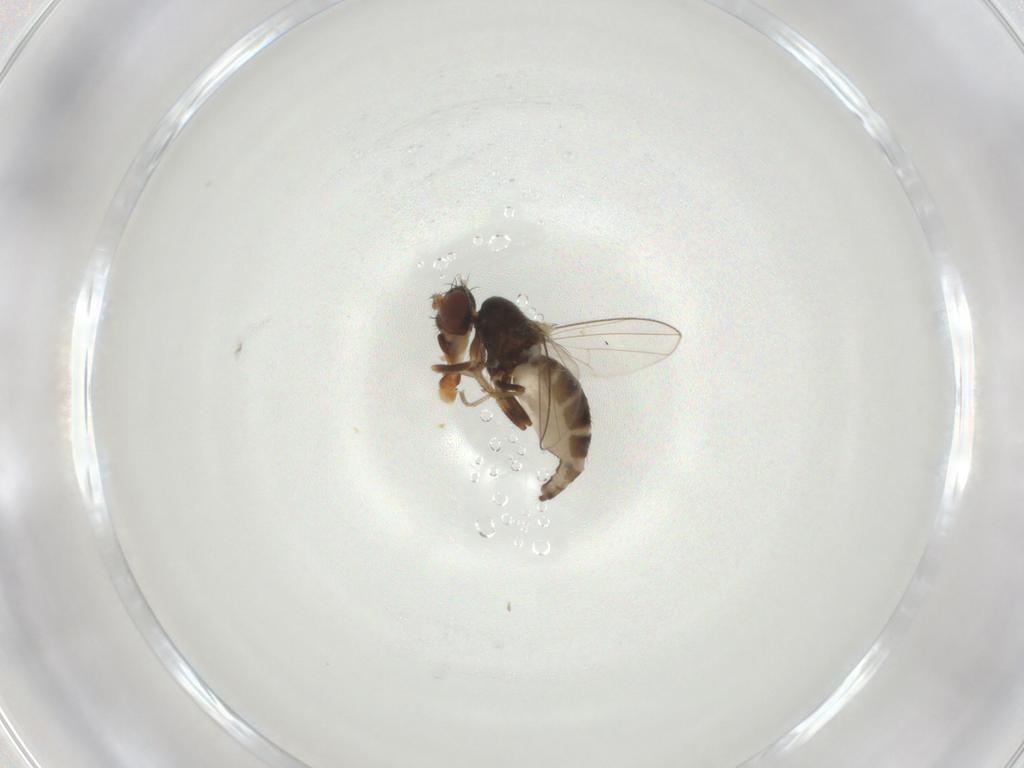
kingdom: Animalia
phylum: Arthropoda
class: Insecta
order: Diptera
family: Ephydridae
